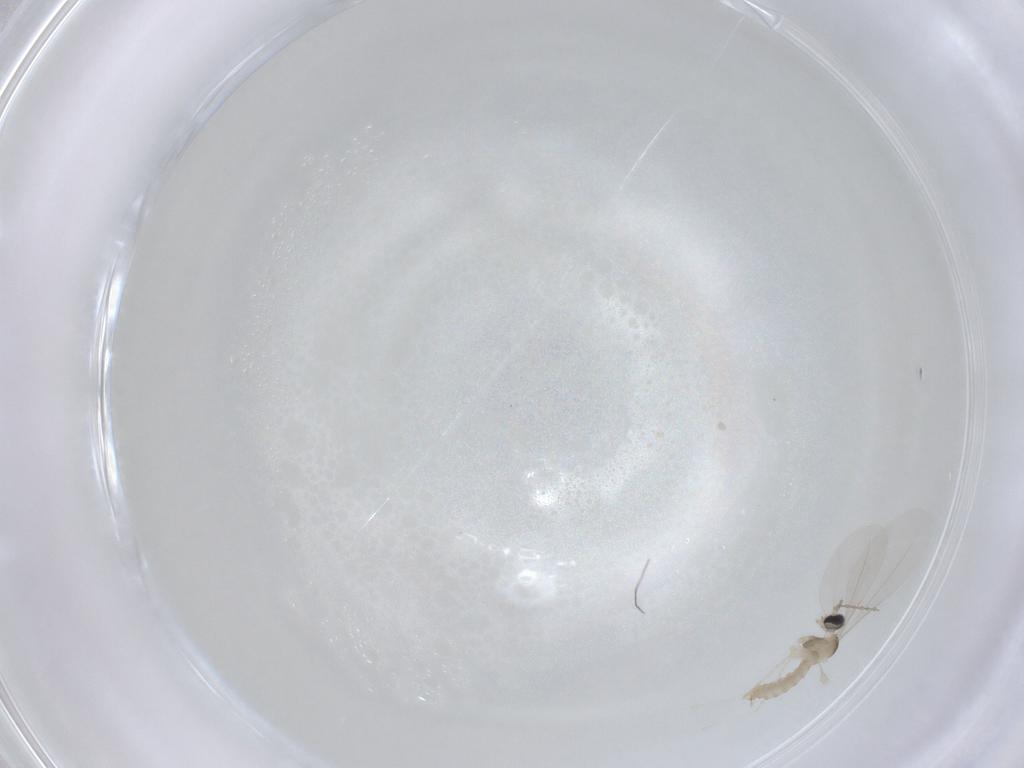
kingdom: Animalia
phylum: Arthropoda
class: Insecta
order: Diptera
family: Cecidomyiidae
